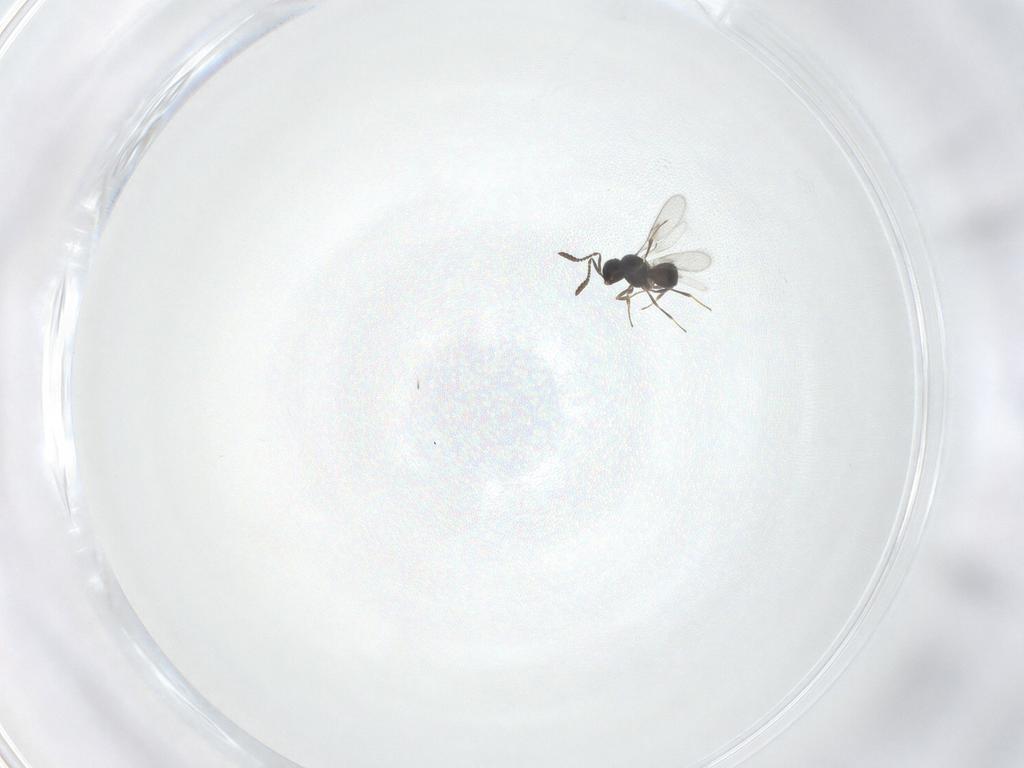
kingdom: Animalia
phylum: Arthropoda
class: Insecta
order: Hymenoptera
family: Scelionidae
